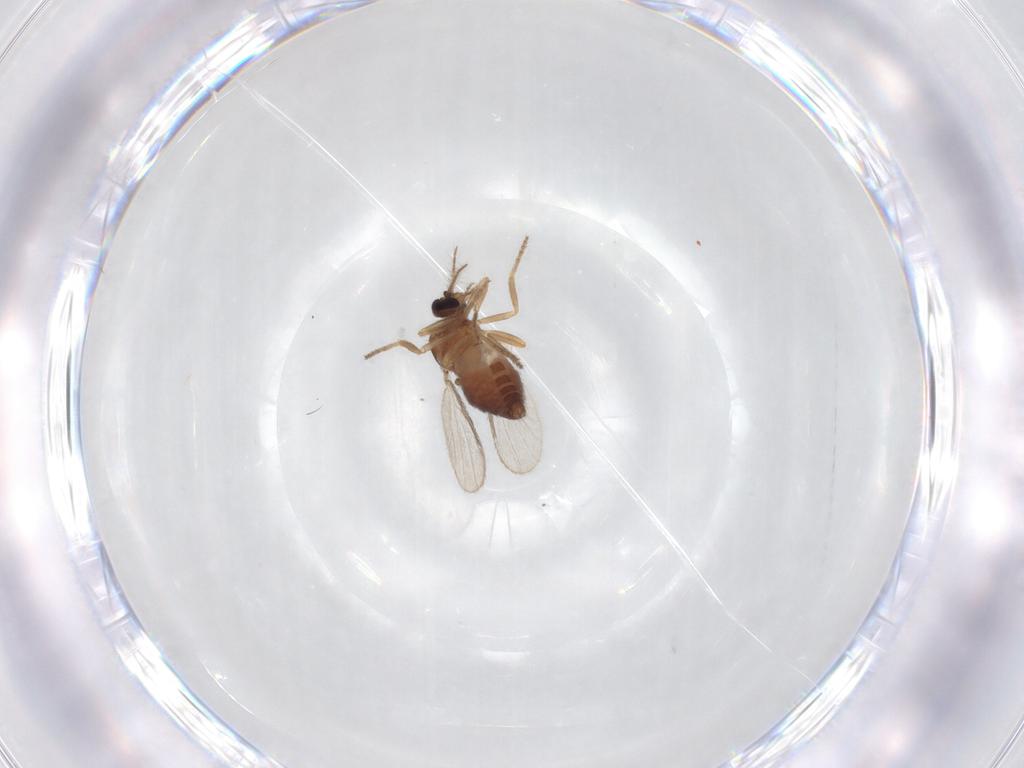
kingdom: Animalia
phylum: Arthropoda
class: Insecta
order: Diptera
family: Ceratopogonidae
